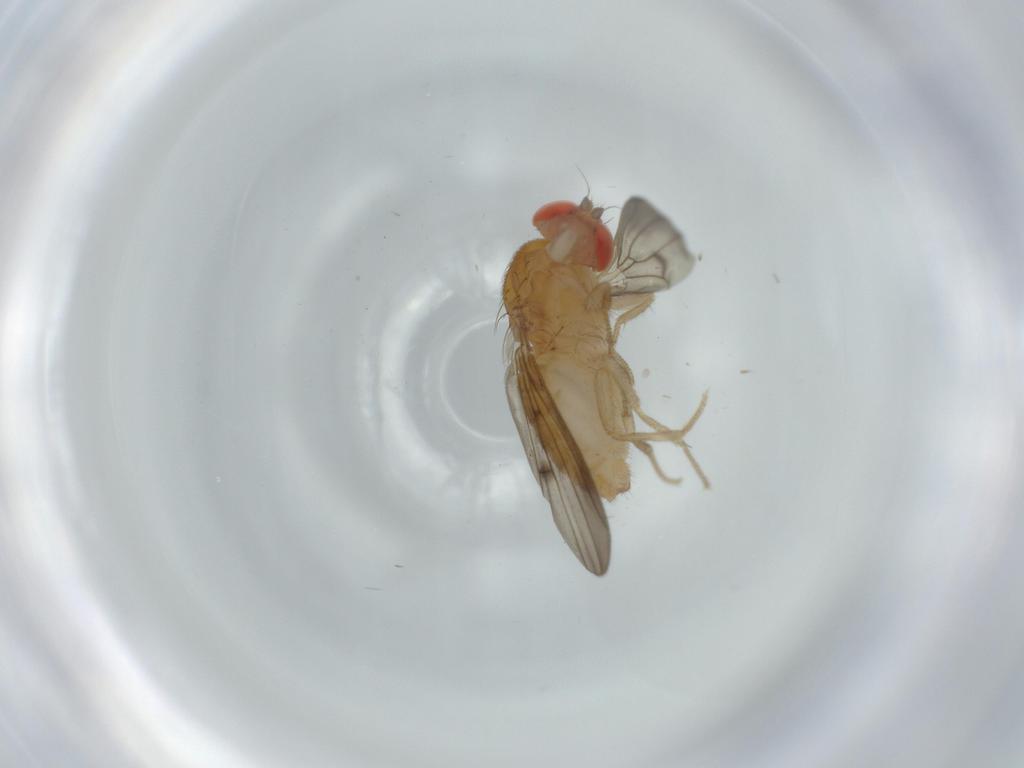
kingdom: Animalia
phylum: Arthropoda
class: Insecta
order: Diptera
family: Drosophilidae
